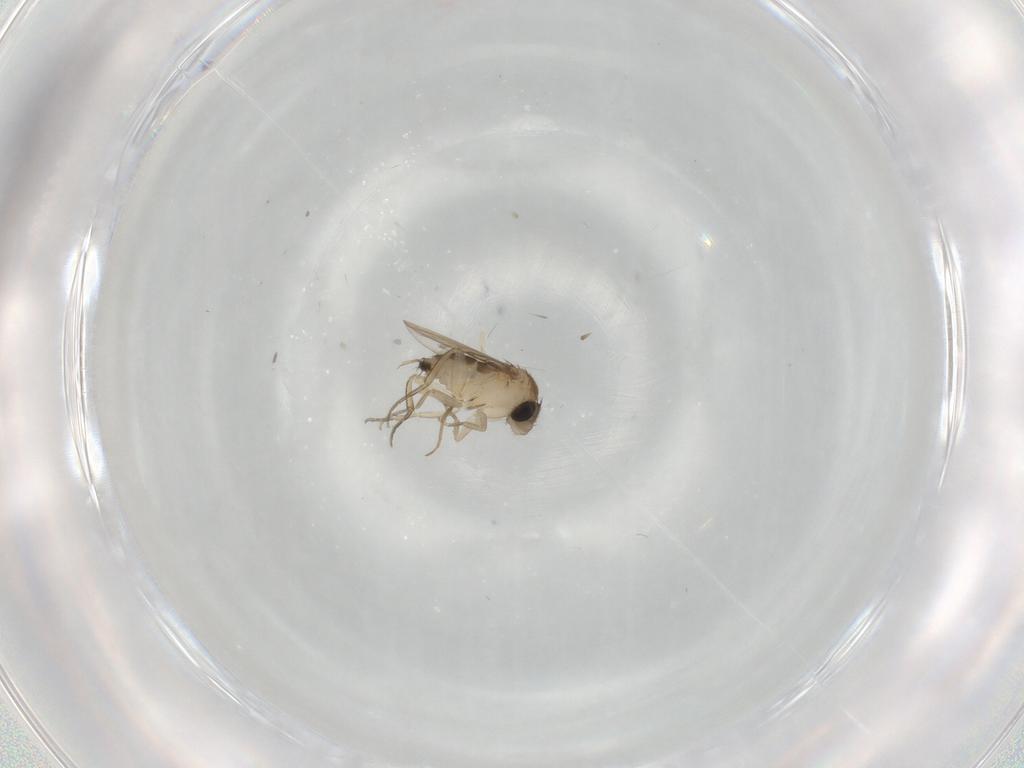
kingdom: Animalia
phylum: Arthropoda
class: Insecta
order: Diptera
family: Phoridae
